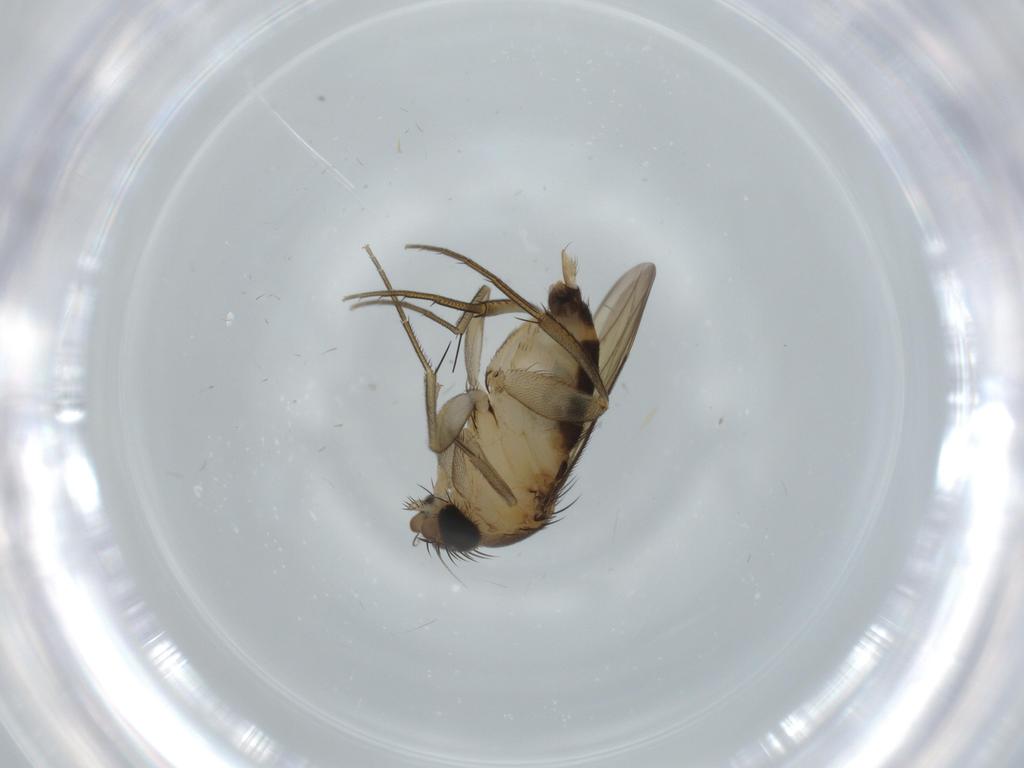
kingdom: Animalia
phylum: Arthropoda
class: Insecta
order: Diptera
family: Phoridae
